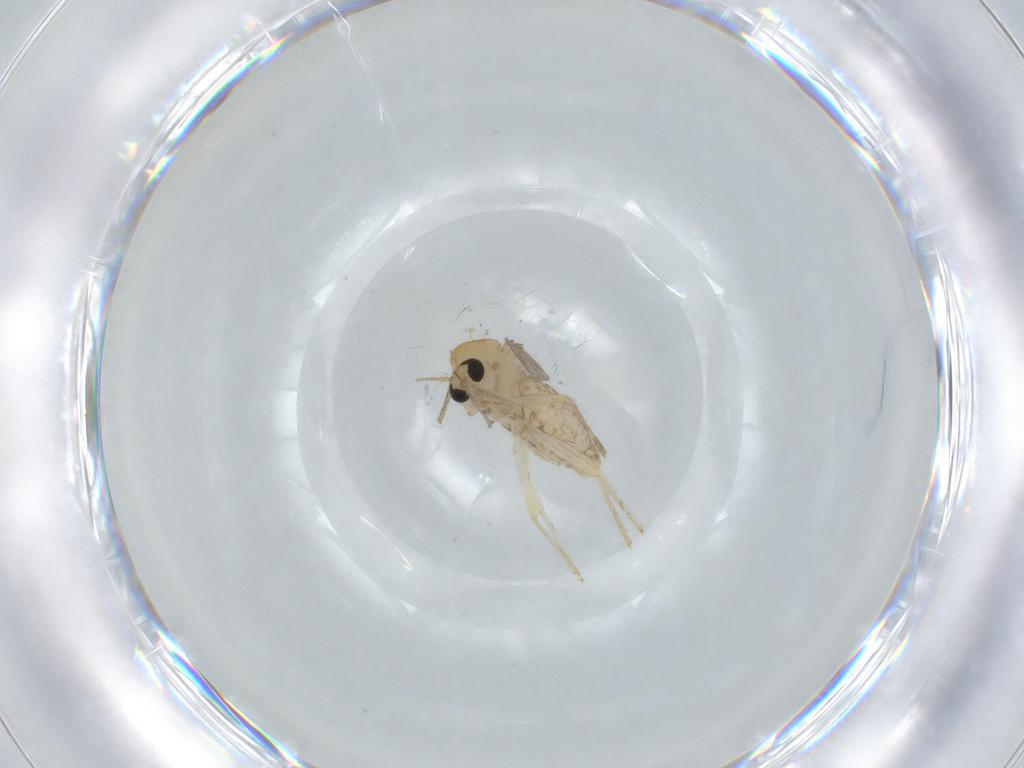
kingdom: Animalia
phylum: Arthropoda
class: Insecta
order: Diptera
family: Chironomidae
